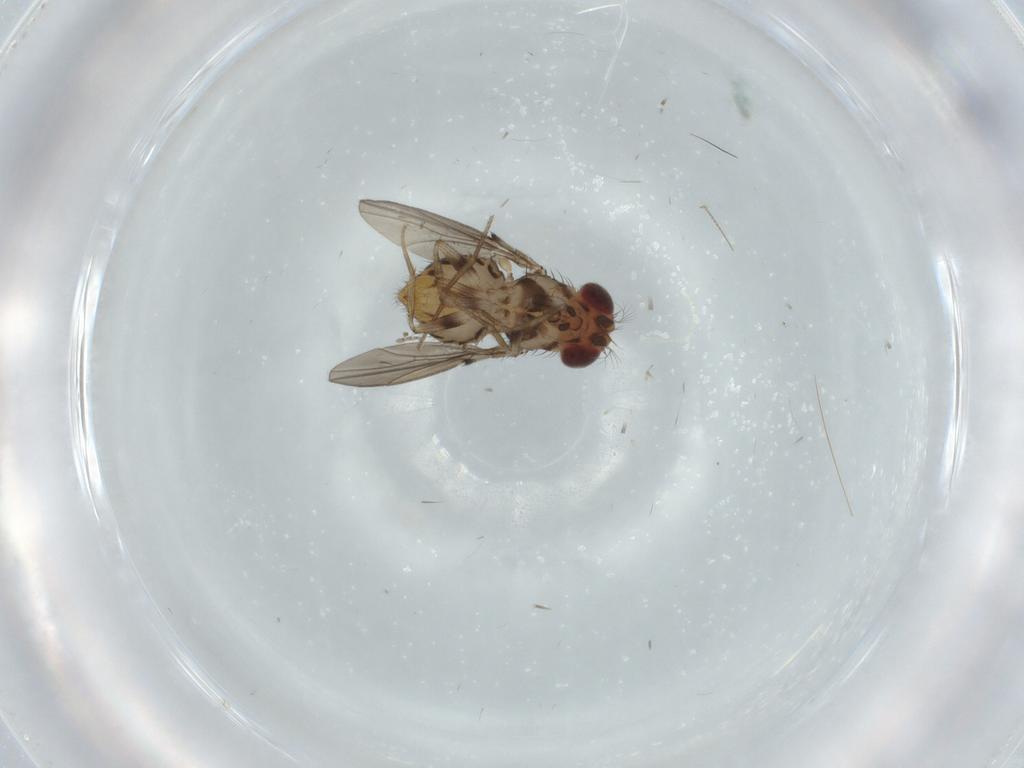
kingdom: Animalia
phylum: Arthropoda
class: Insecta
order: Diptera
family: Drosophilidae
